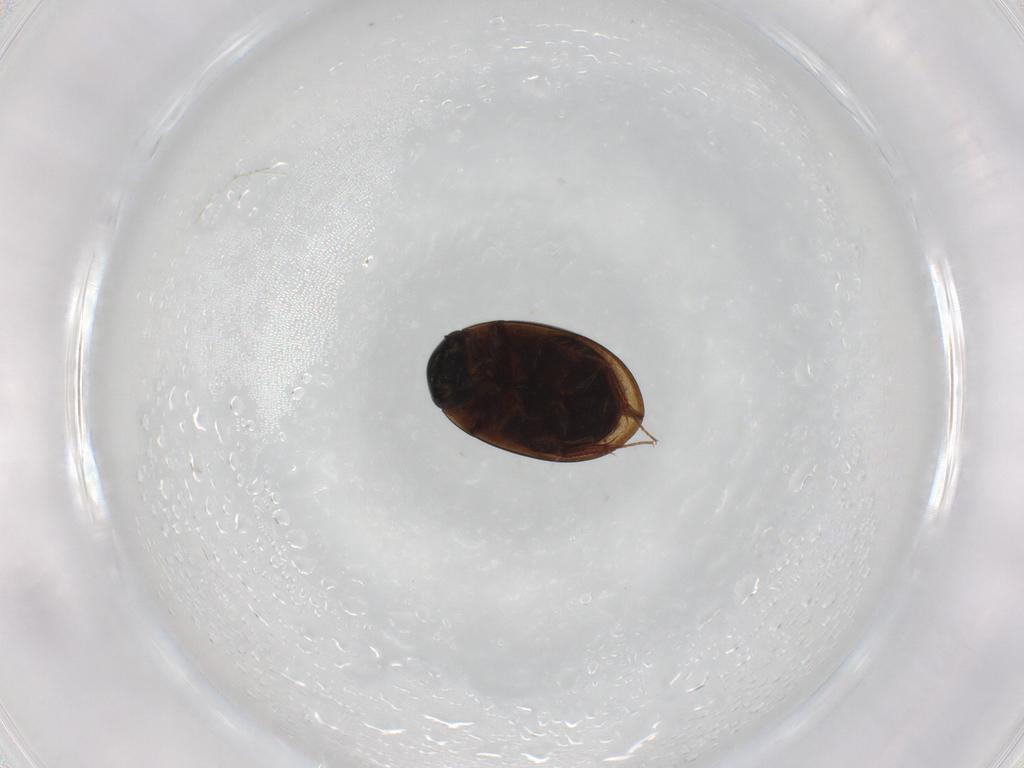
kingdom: Animalia
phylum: Arthropoda
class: Insecta
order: Coleoptera
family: Hydrophilidae
